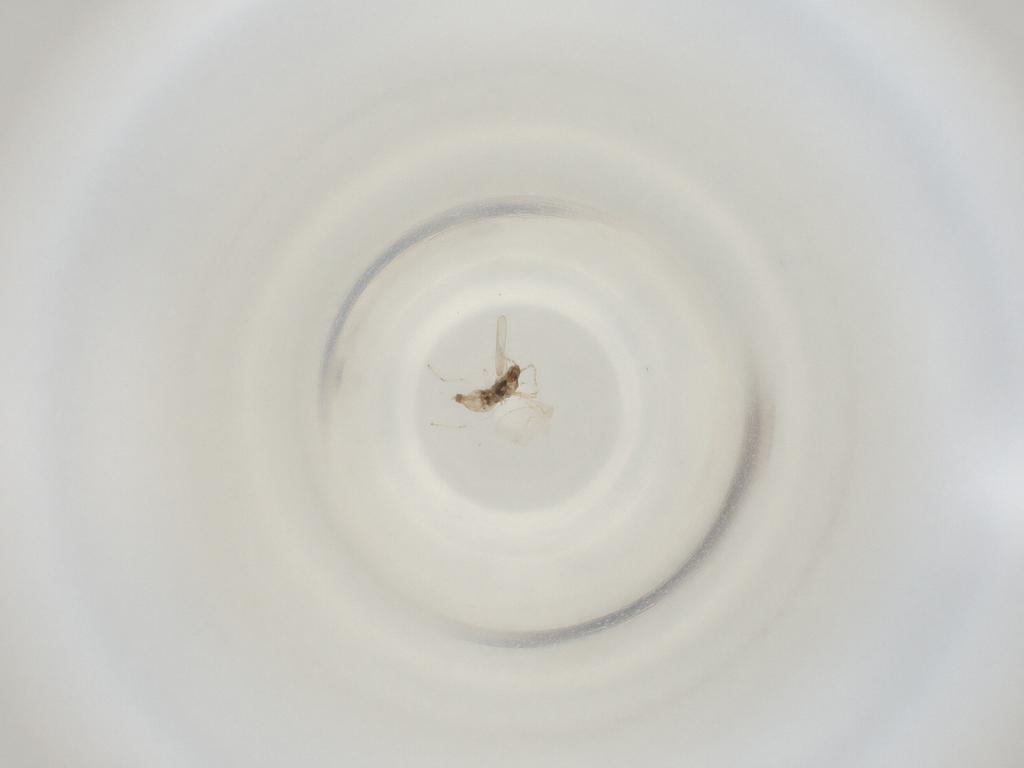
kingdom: Animalia
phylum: Arthropoda
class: Insecta
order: Diptera
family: Cecidomyiidae
